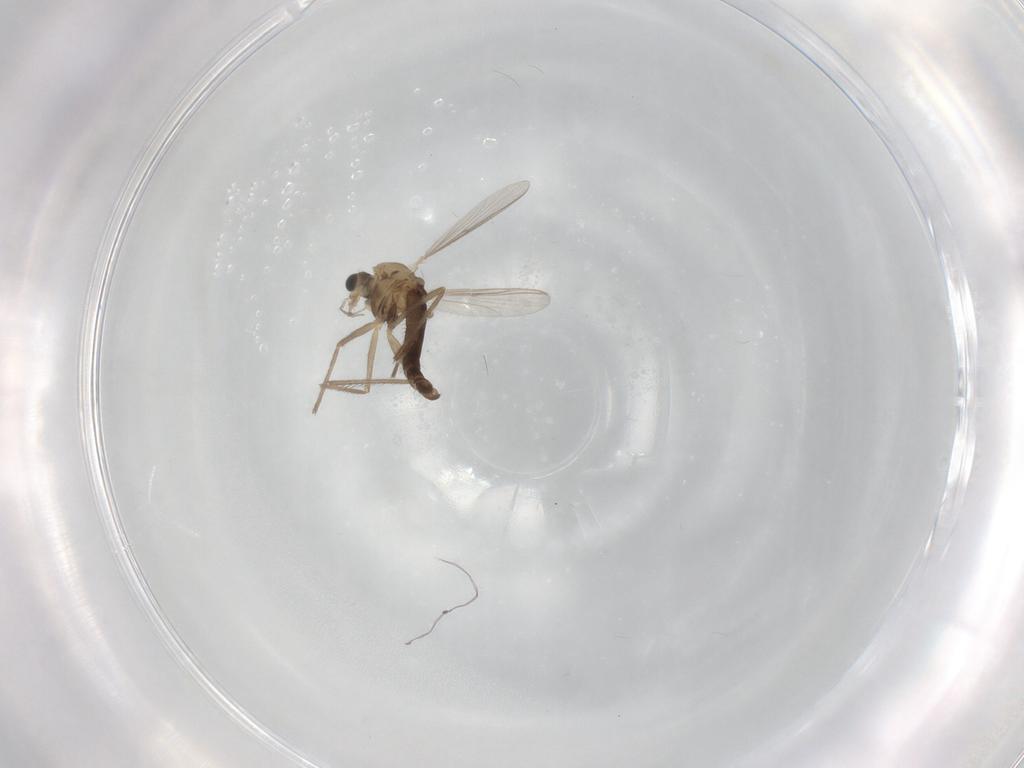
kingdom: Animalia
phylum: Arthropoda
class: Insecta
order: Diptera
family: Chironomidae
